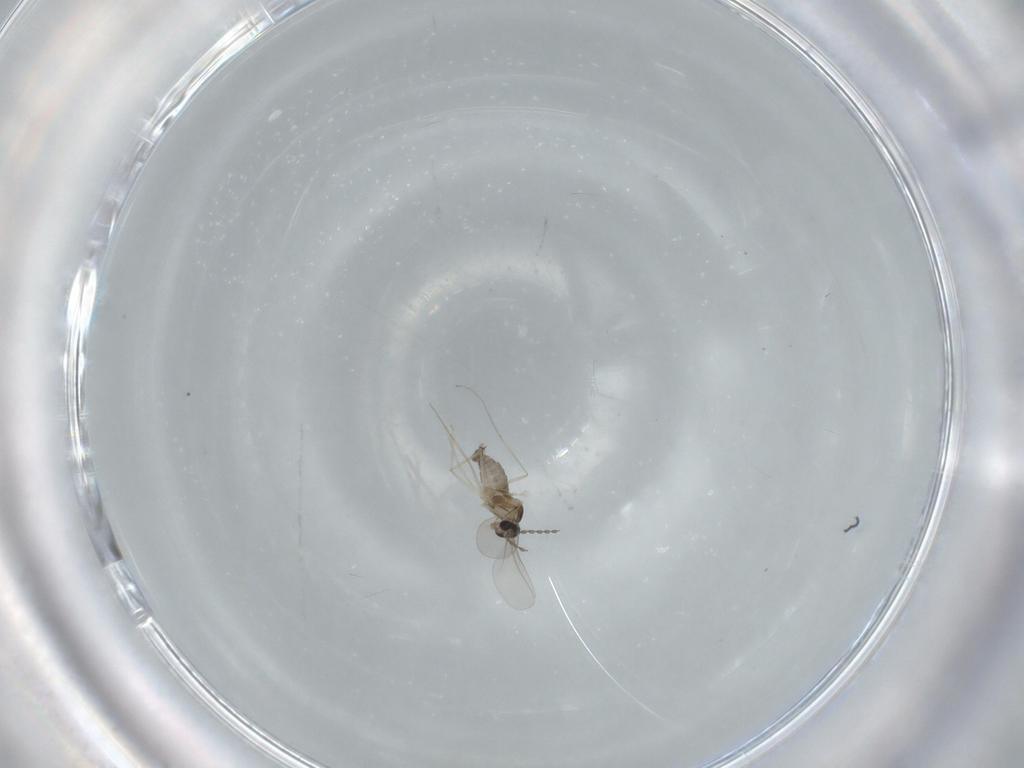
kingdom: Animalia
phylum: Arthropoda
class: Insecta
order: Diptera
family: Cecidomyiidae
